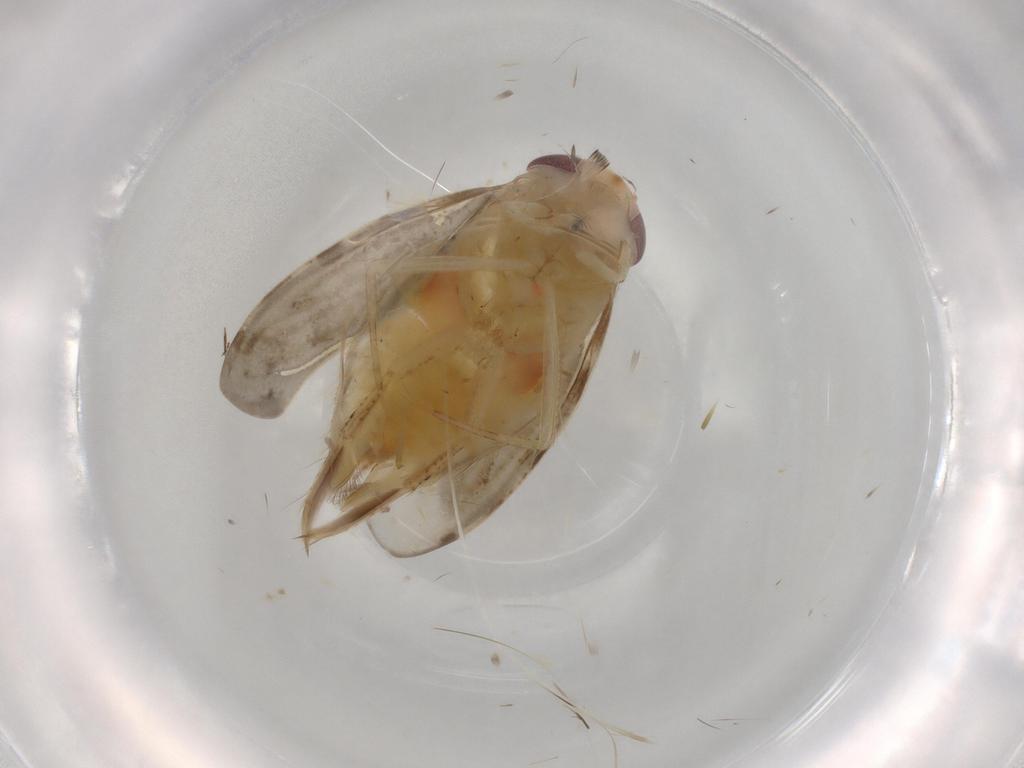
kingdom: Animalia
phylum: Arthropoda
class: Insecta
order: Hemiptera
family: Corixidae
